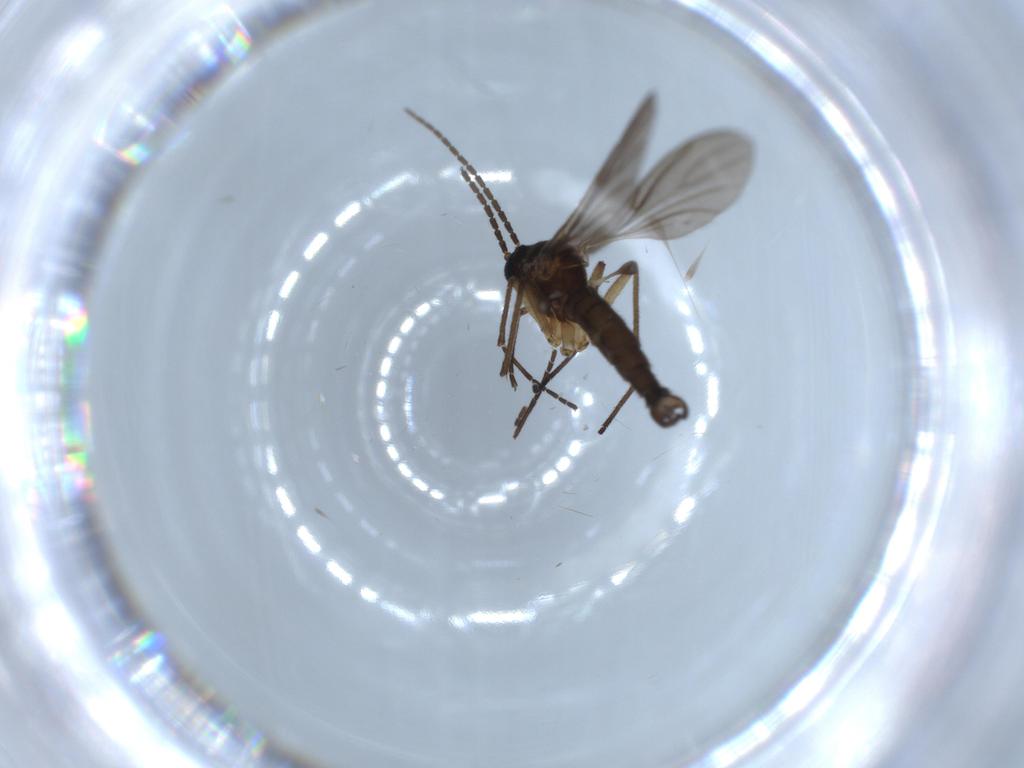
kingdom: Animalia
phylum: Arthropoda
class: Insecta
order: Diptera
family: Sciaridae
